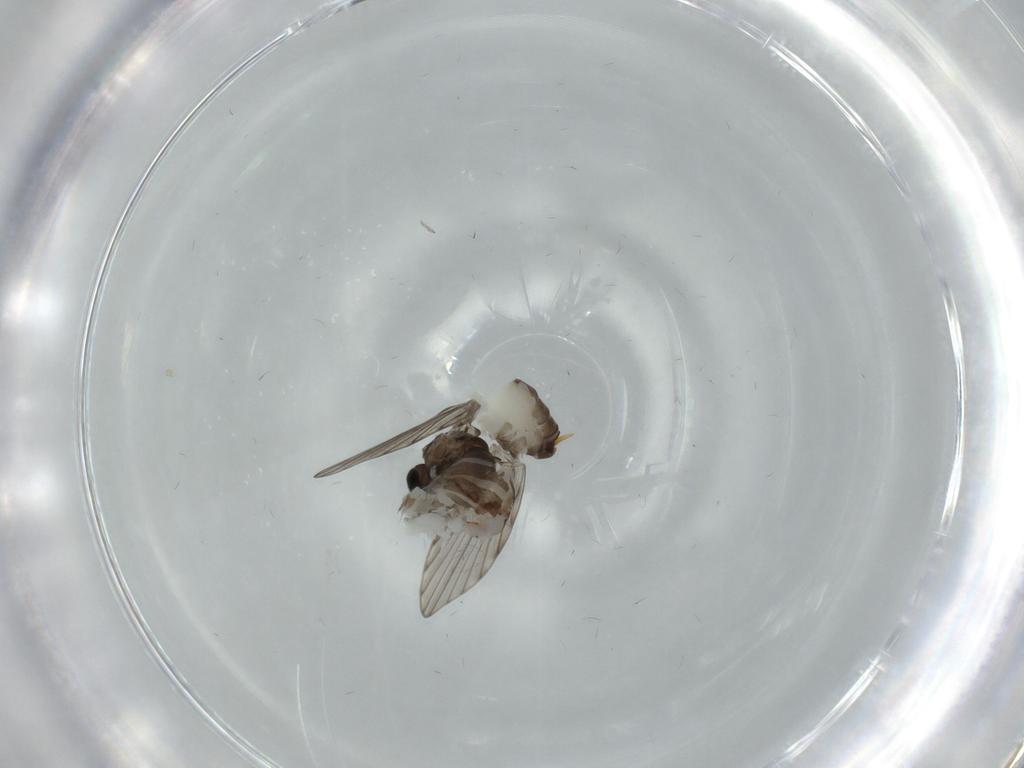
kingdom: Animalia
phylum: Arthropoda
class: Insecta
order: Diptera
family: Psychodidae
